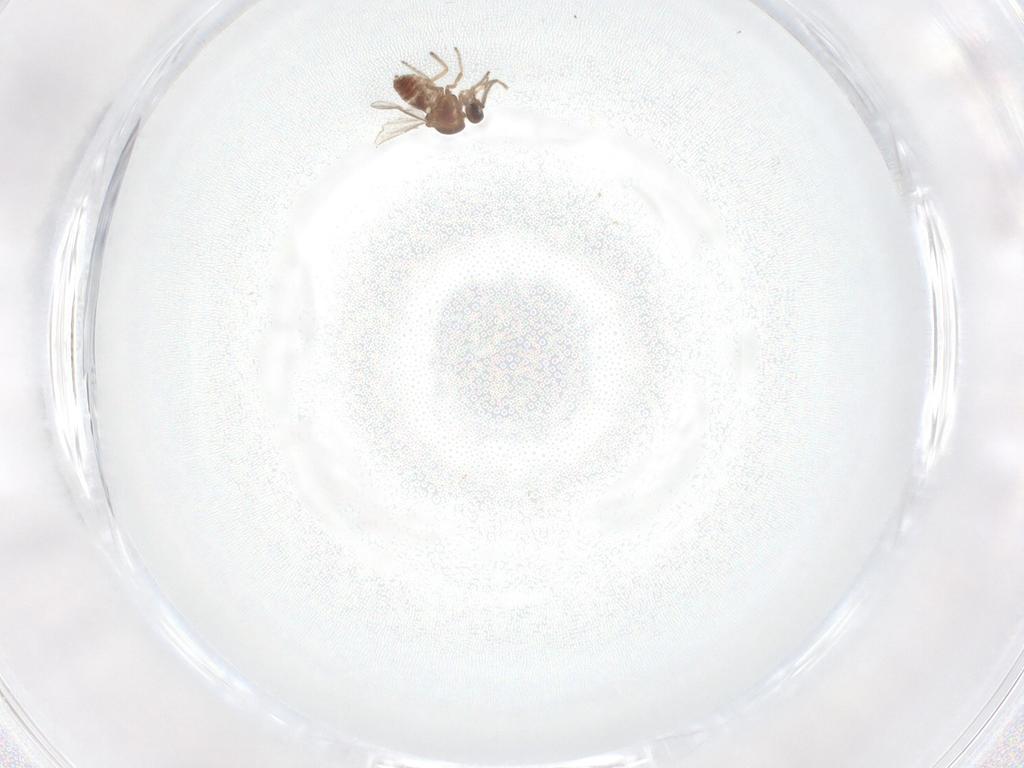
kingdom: Animalia
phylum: Arthropoda
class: Insecta
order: Diptera
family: Ceratopogonidae
